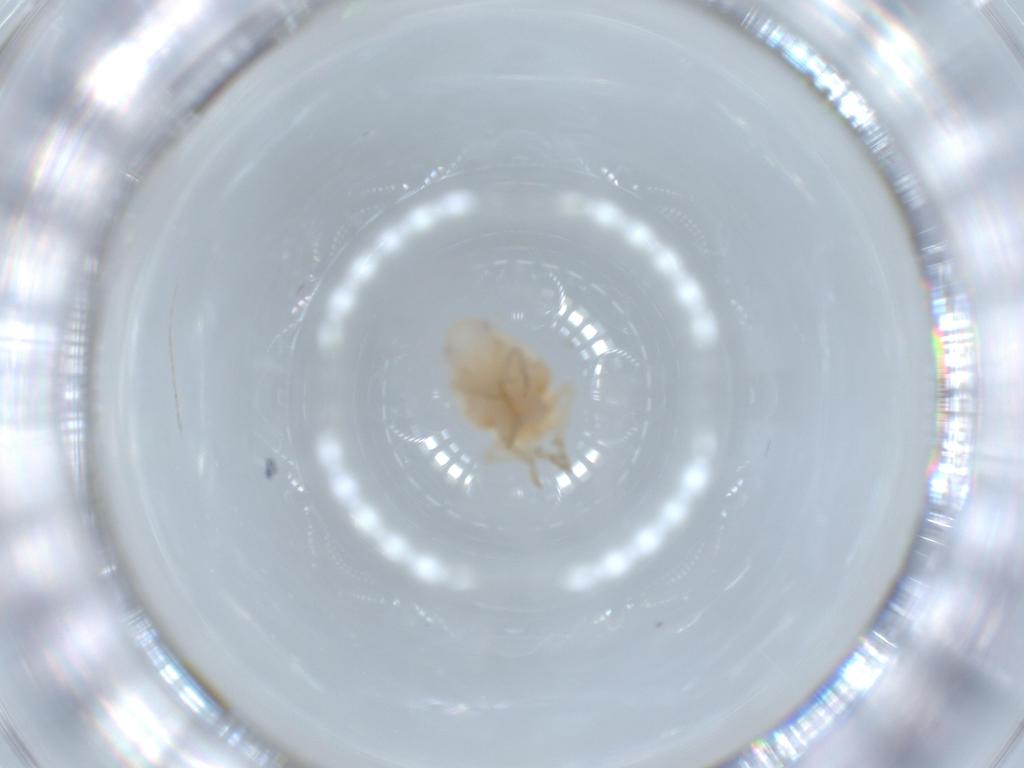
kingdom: Animalia
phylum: Arthropoda
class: Insecta
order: Hemiptera
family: Flatidae
